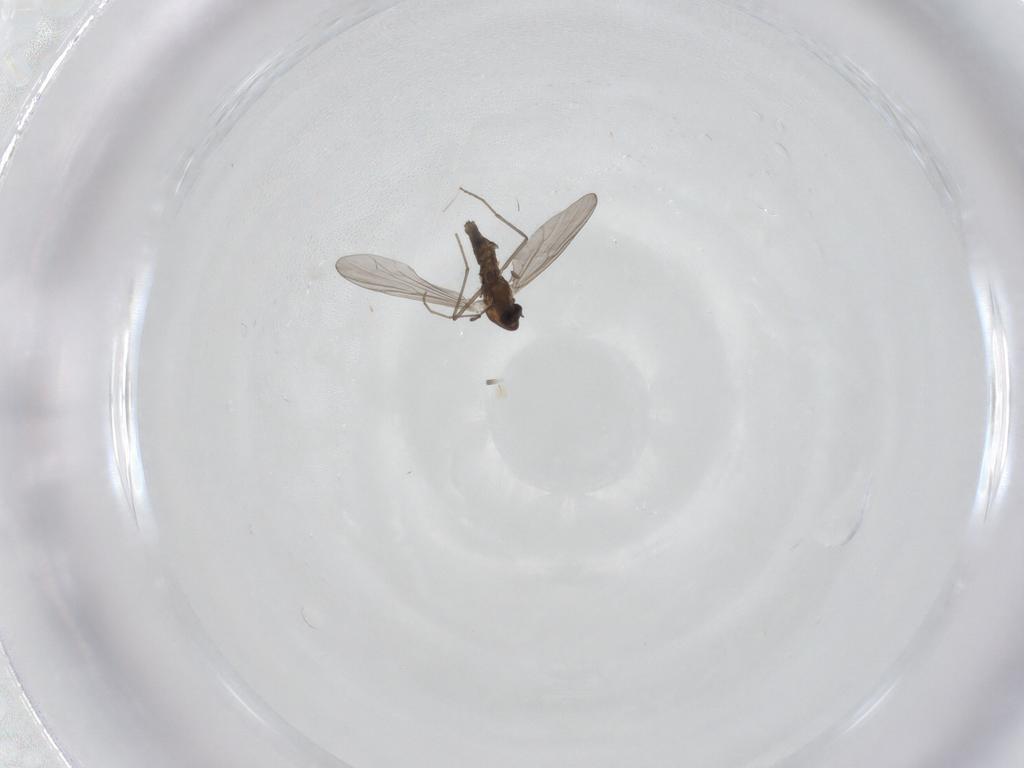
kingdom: Animalia
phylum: Arthropoda
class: Insecta
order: Diptera
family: Chironomidae
